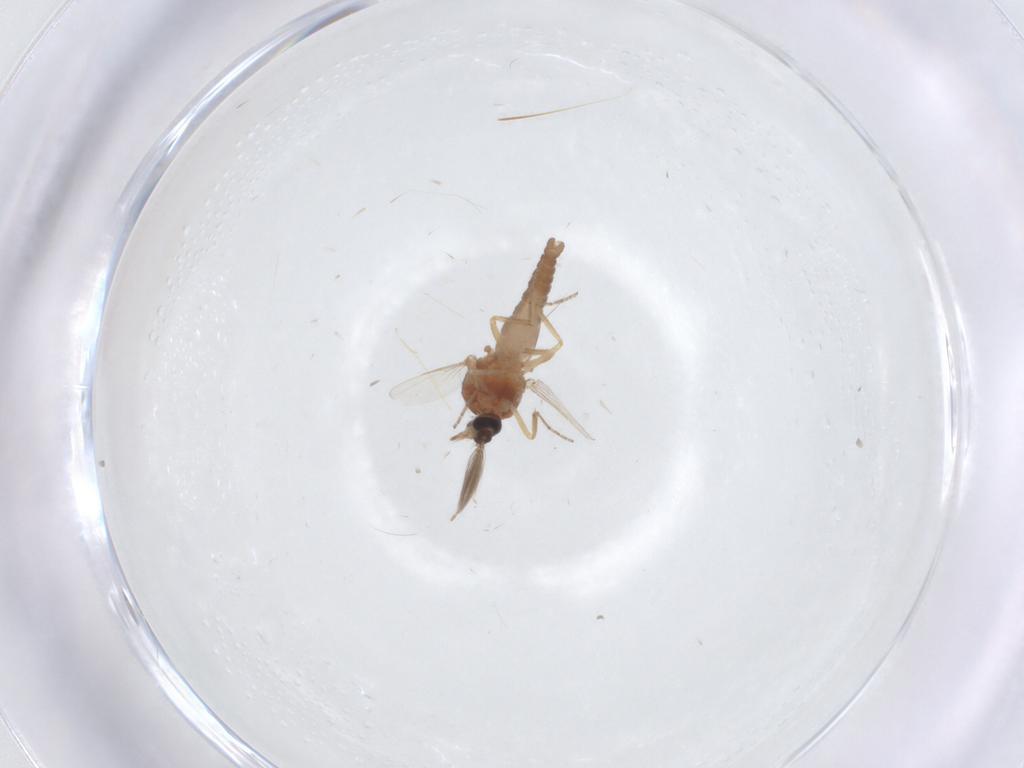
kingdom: Animalia
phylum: Arthropoda
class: Insecta
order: Diptera
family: Ceratopogonidae
